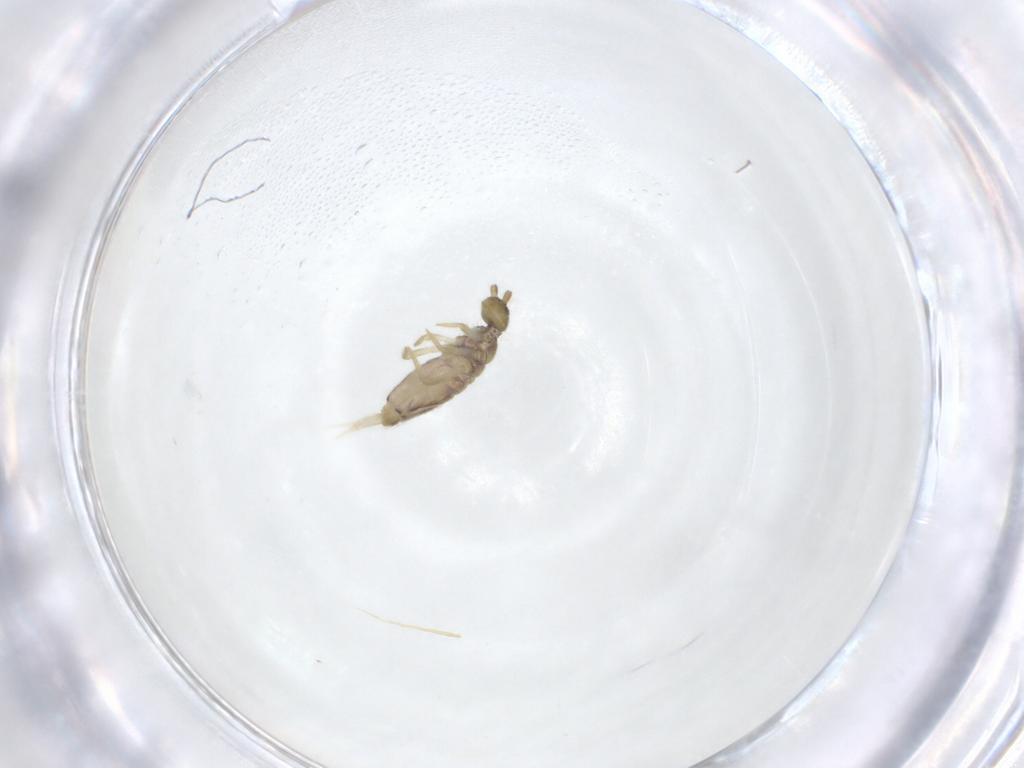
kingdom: Animalia
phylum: Arthropoda
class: Collembola
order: Entomobryomorpha
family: Entomobryidae
